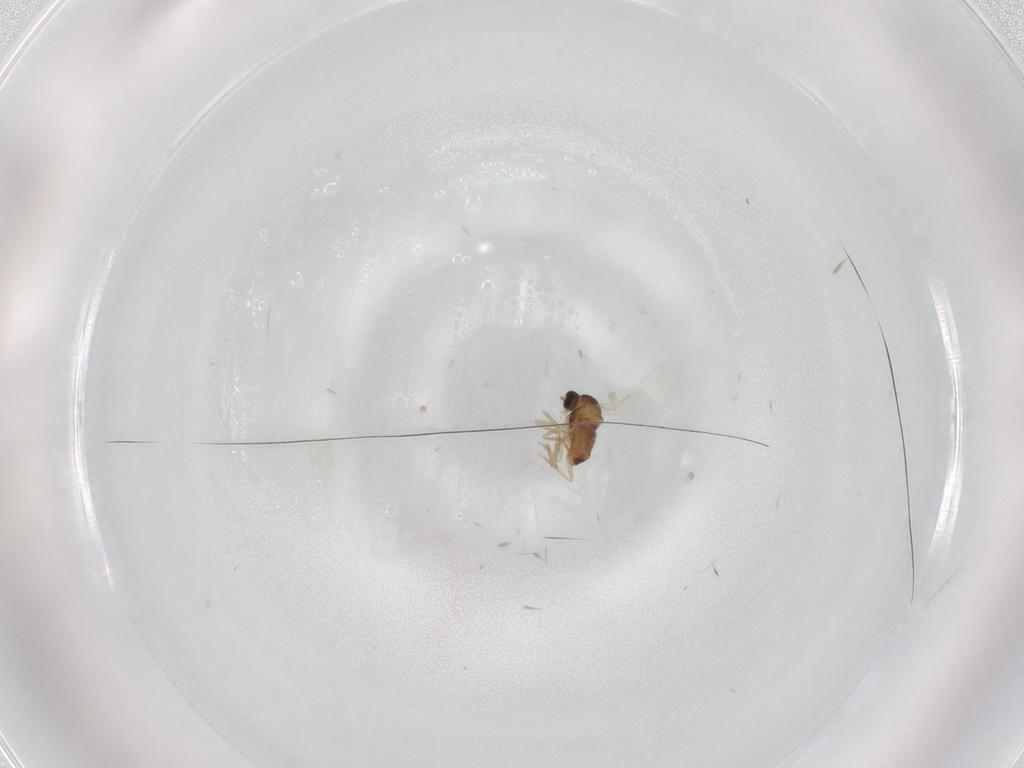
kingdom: Animalia
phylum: Arthropoda
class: Insecta
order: Diptera
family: Cecidomyiidae
